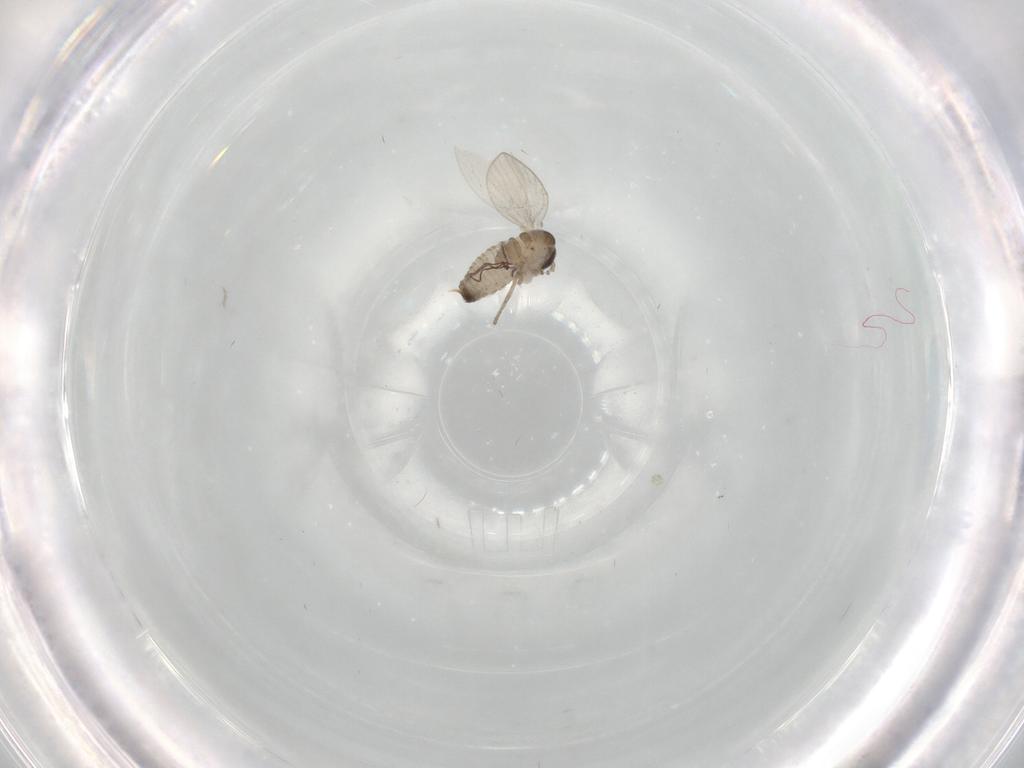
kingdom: Animalia
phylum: Arthropoda
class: Insecta
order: Diptera
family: Psychodidae
